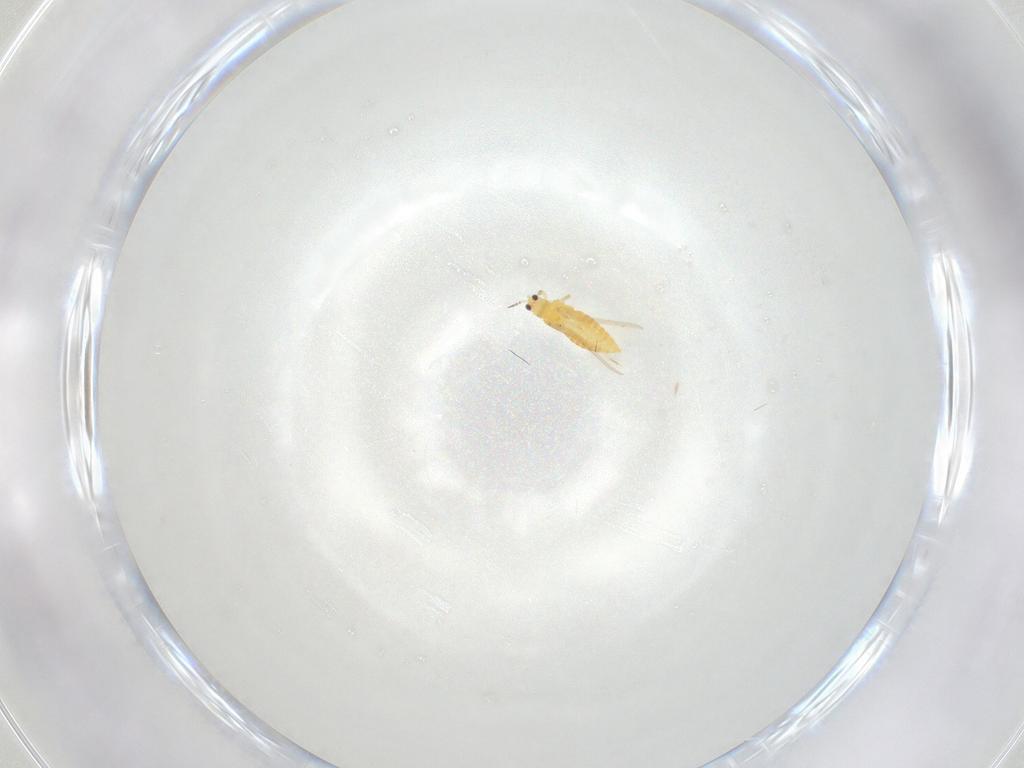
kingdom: Animalia
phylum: Arthropoda
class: Insecta
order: Thysanoptera
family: Thripidae
